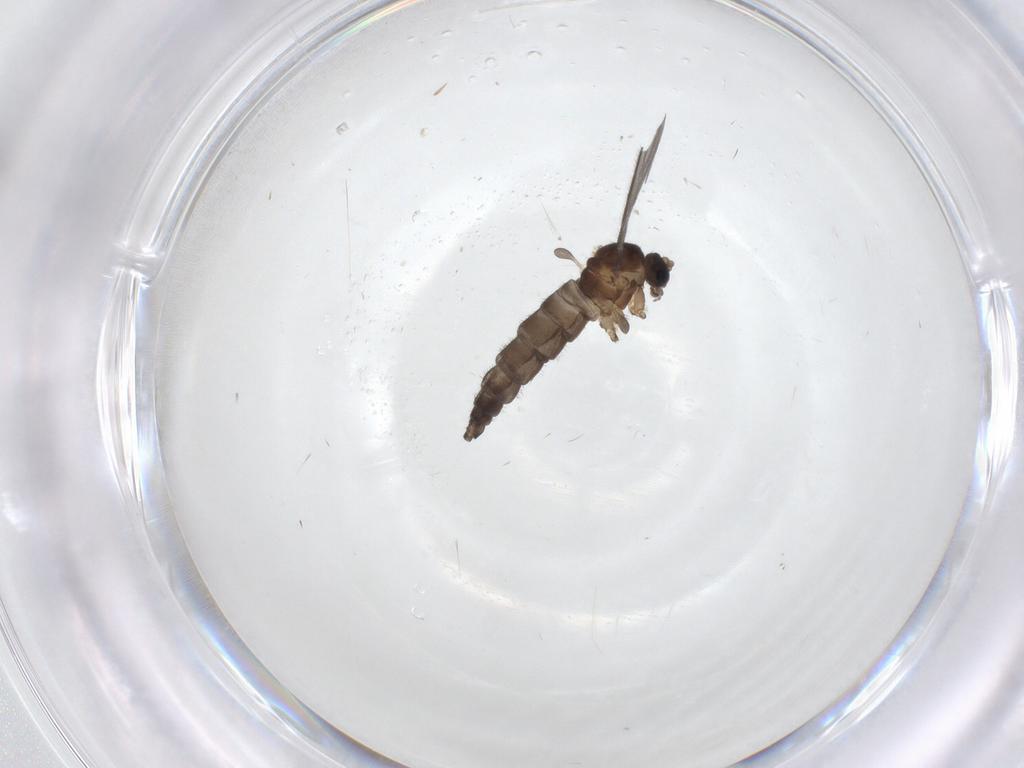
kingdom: Animalia
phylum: Arthropoda
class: Insecta
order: Diptera
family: Sciaridae
